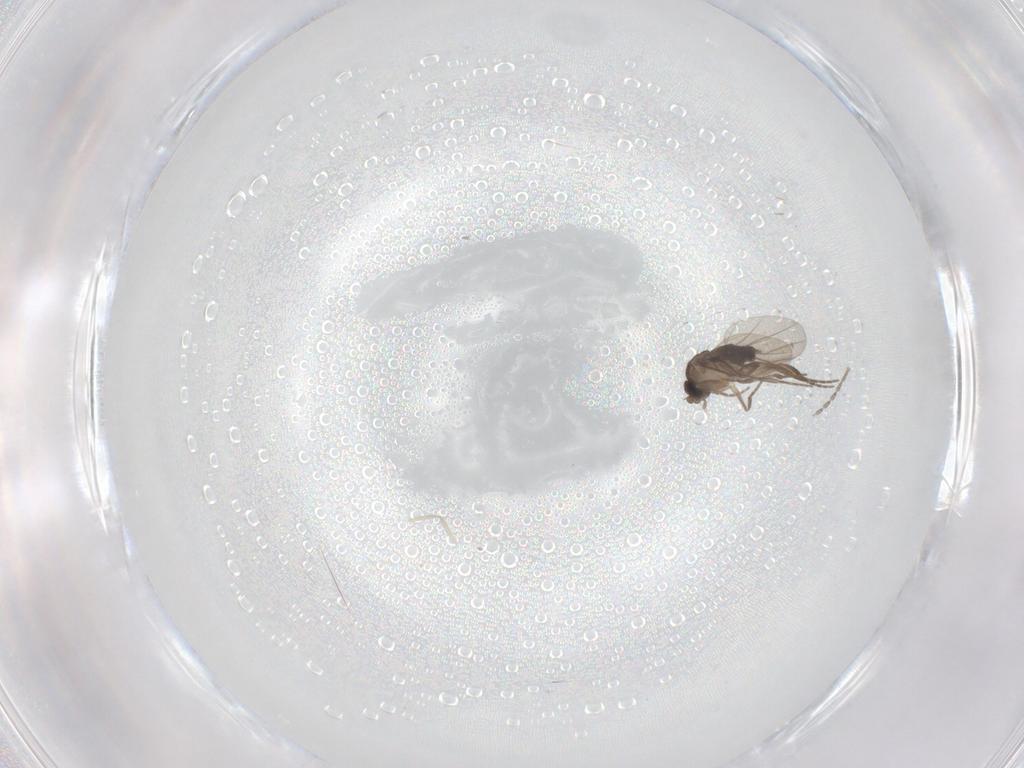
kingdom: Animalia
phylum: Arthropoda
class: Insecta
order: Diptera
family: Cecidomyiidae
